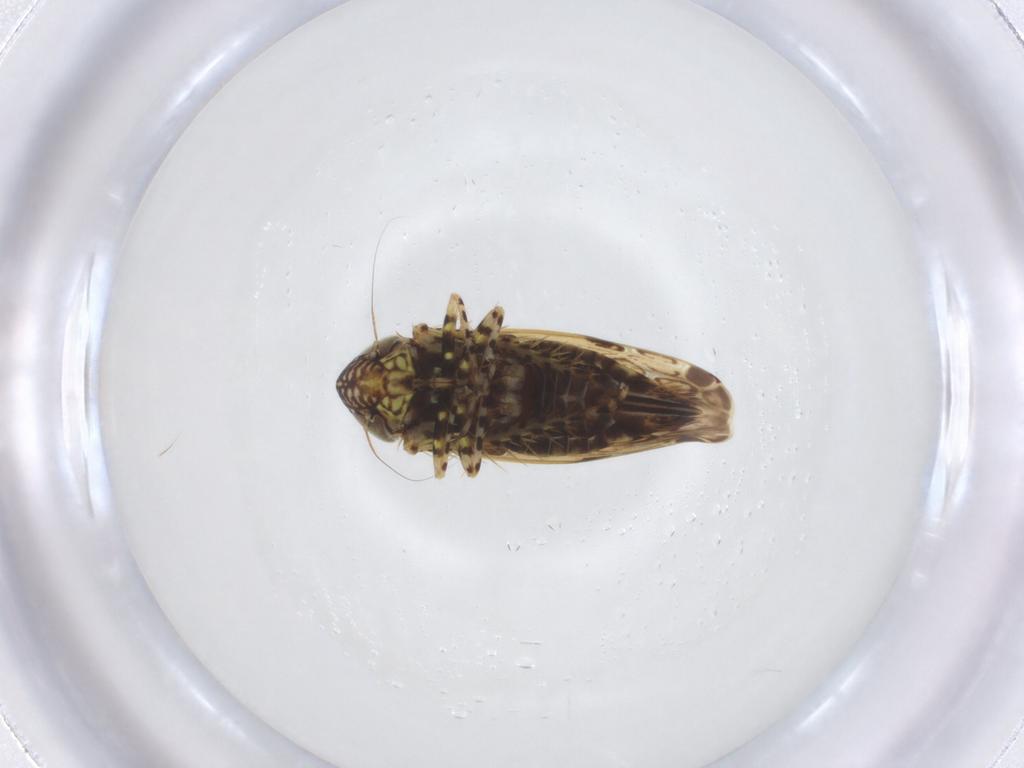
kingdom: Animalia
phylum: Arthropoda
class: Insecta
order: Hemiptera
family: Cicadellidae
